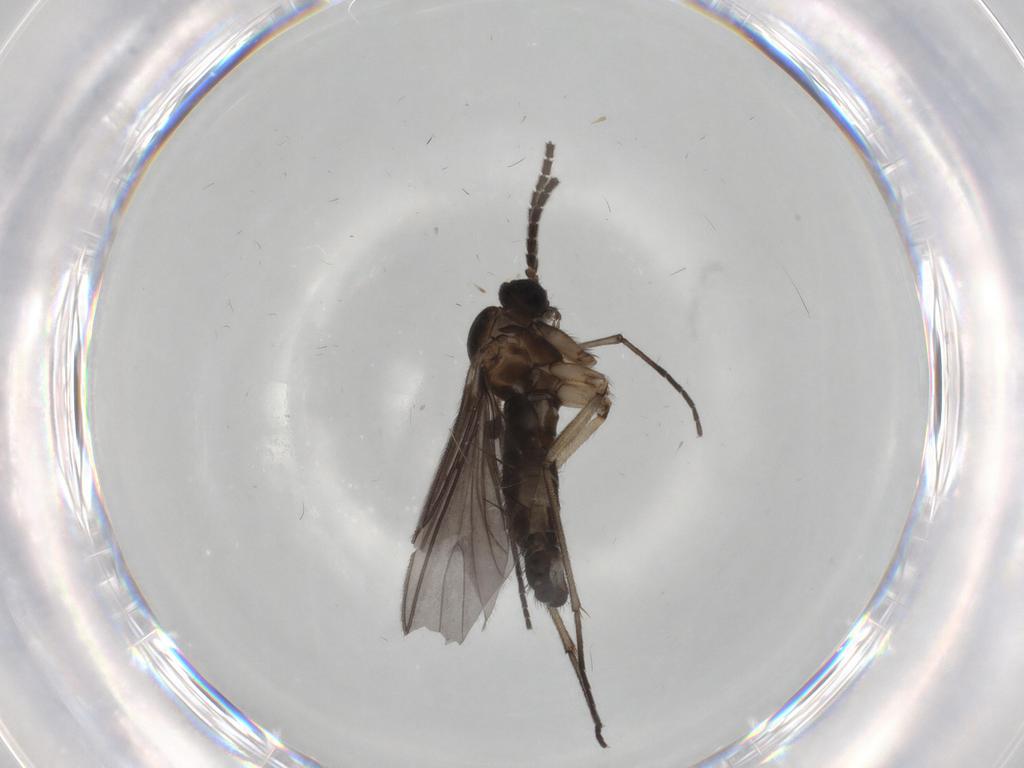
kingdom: Animalia
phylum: Arthropoda
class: Insecta
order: Diptera
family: Sciaridae
